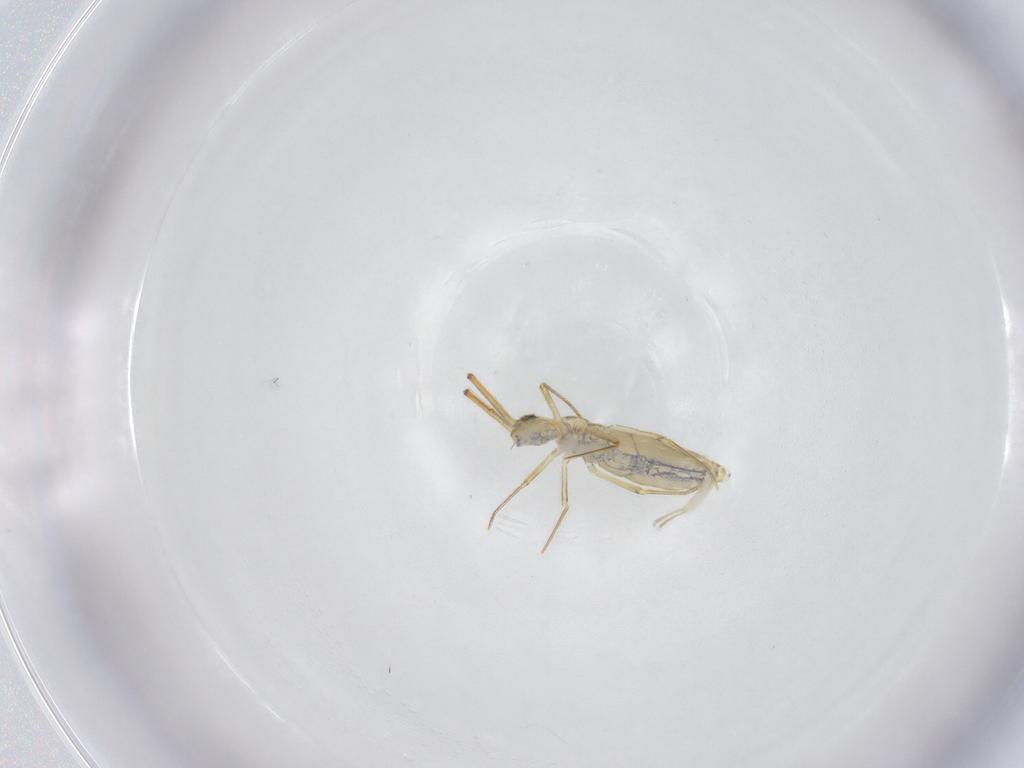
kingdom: Animalia
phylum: Arthropoda
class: Collembola
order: Entomobryomorpha
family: Entomobryidae
